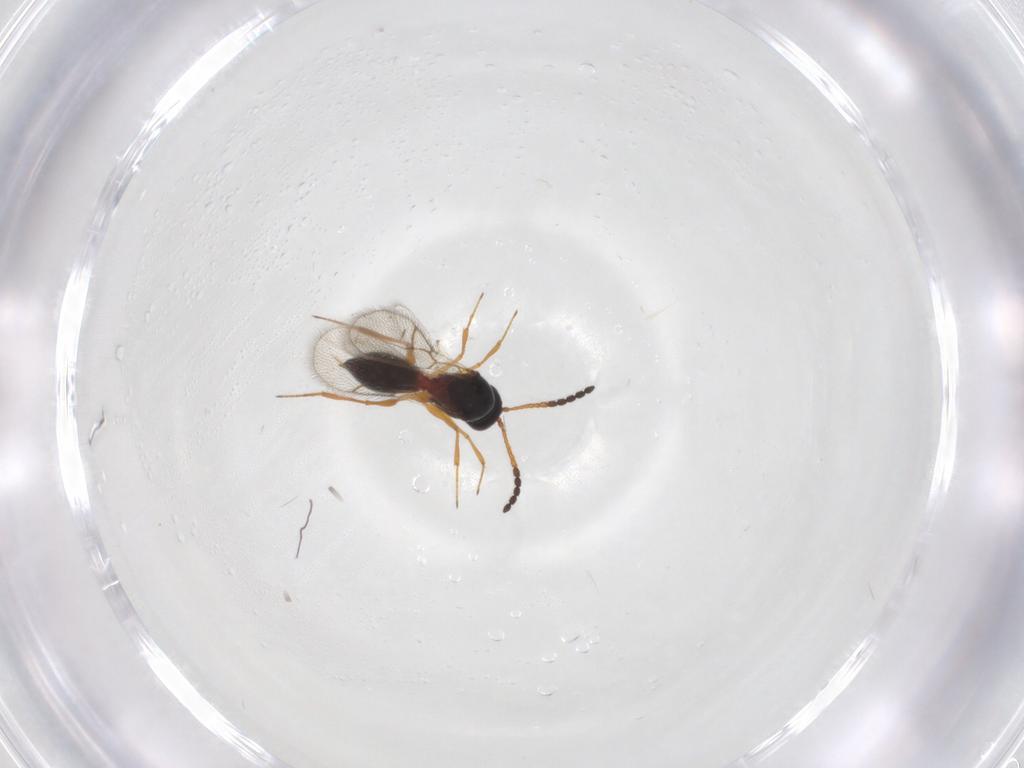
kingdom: Animalia
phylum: Arthropoda
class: Insecta
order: Hymenoptera
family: Figitidae
